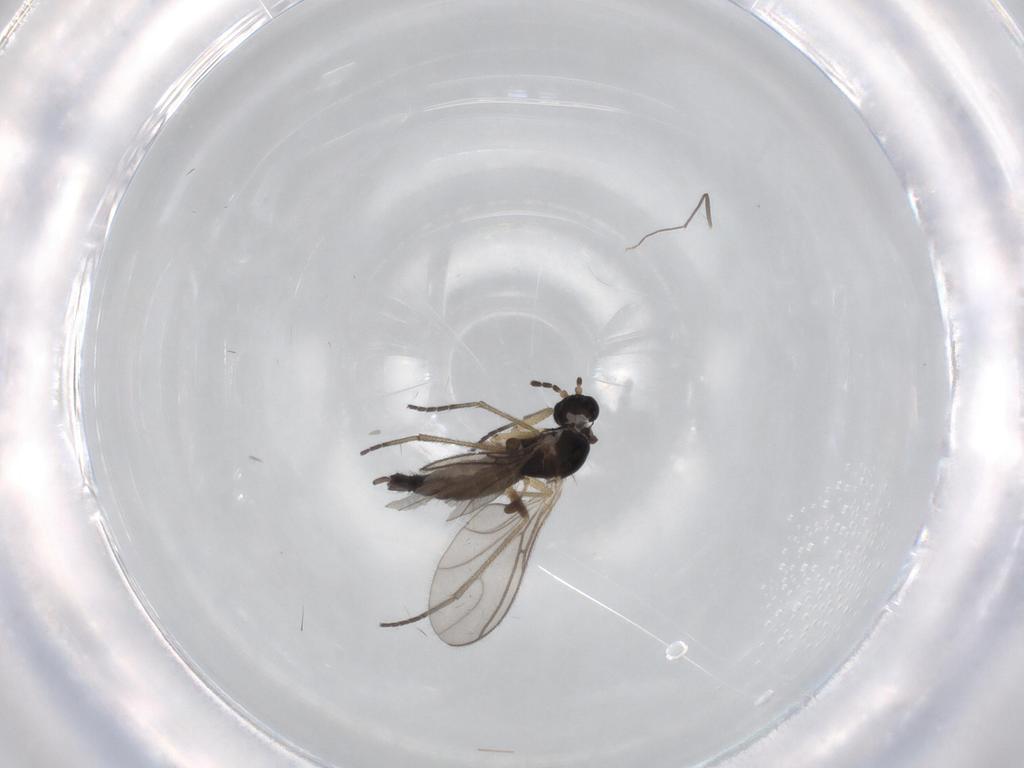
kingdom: Animalia
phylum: Arthropoda
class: Insecta
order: Diptera
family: Sciaridae
